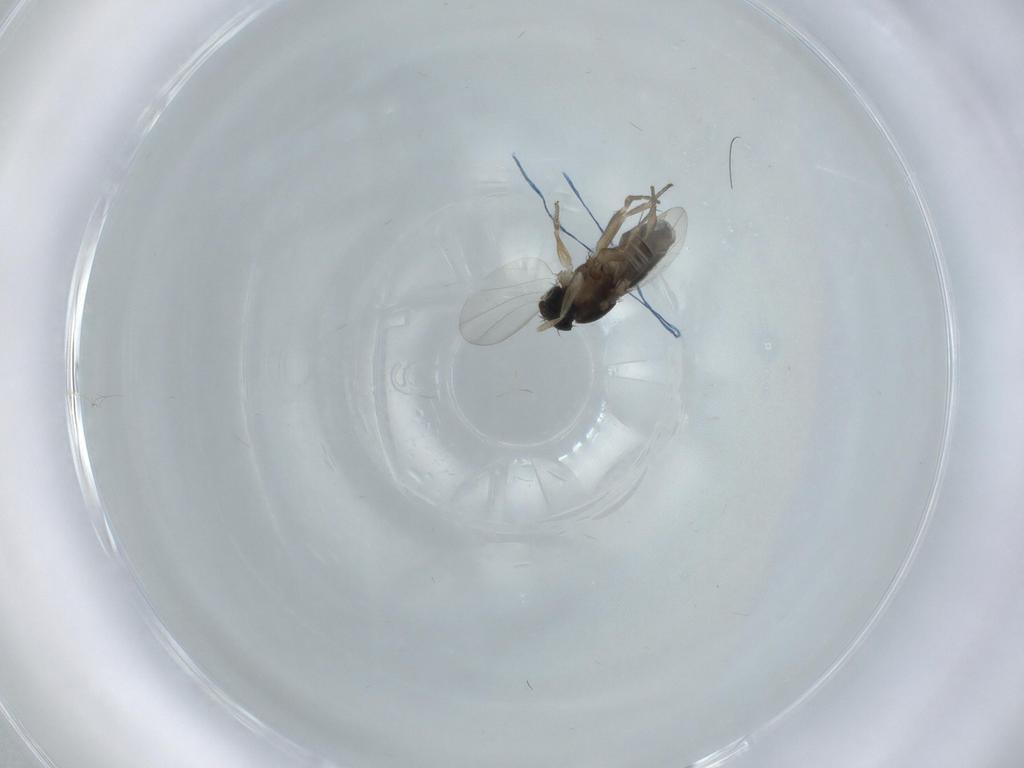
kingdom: Animalia
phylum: Arthropoda
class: Insecta
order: Diptera
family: Phoridae
